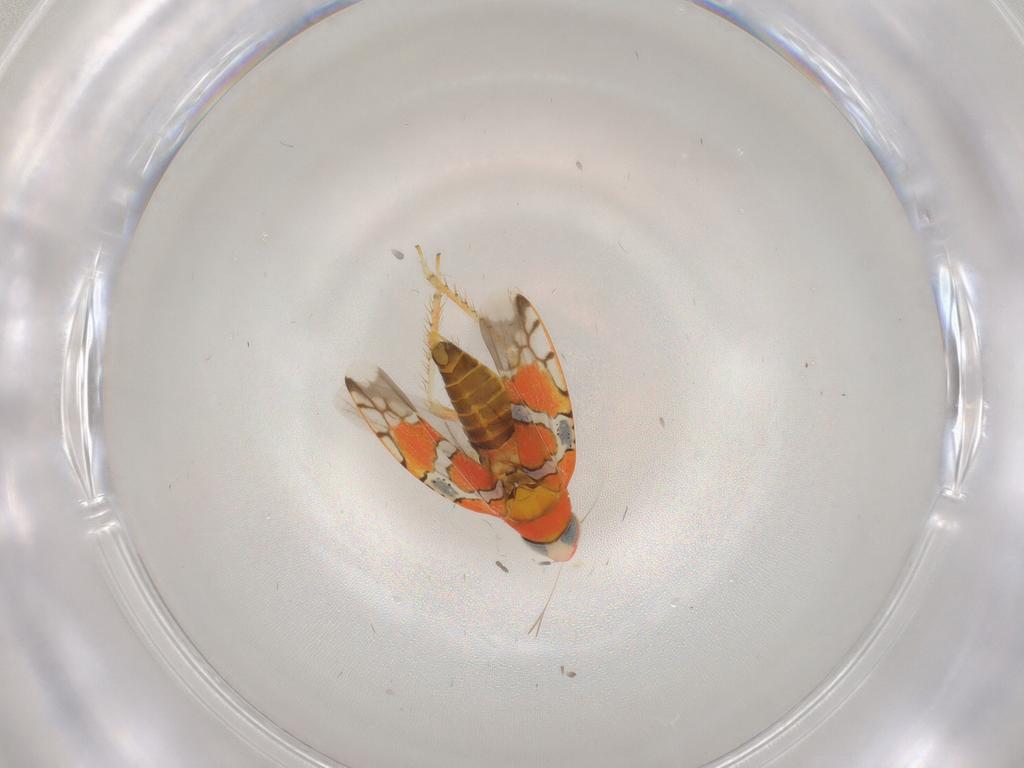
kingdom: Animalia
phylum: Arthropoda
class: Insecta
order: Hemiptera
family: Cicadellidae
